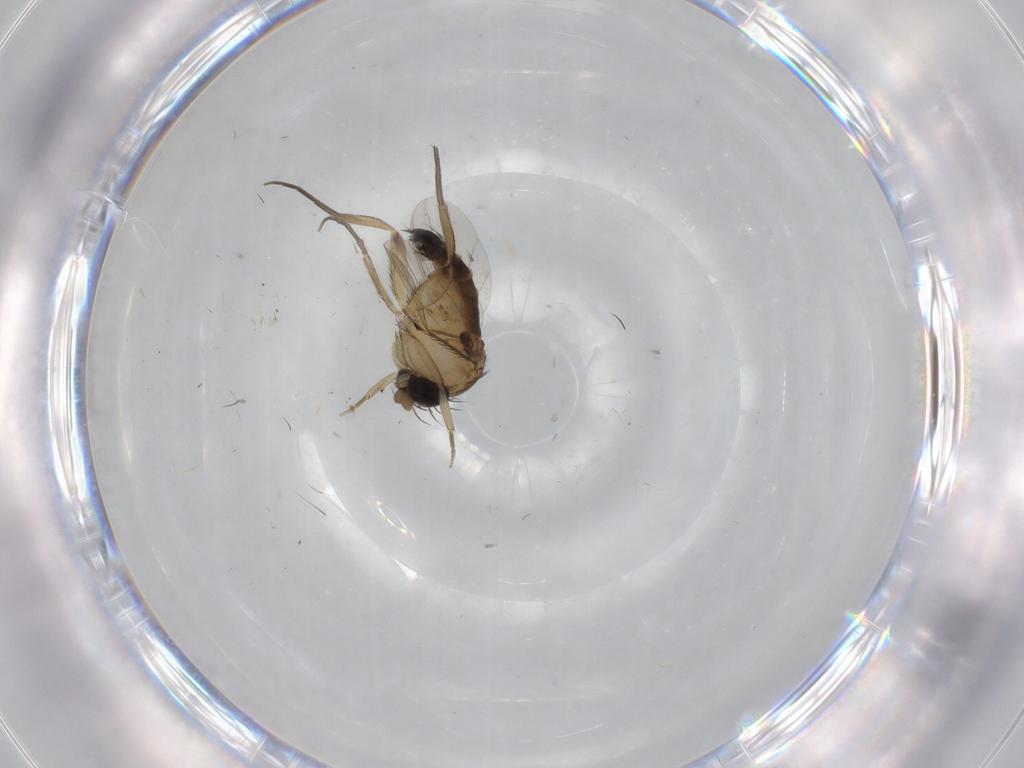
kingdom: Animalia
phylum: Arthropoda
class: Insecta
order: Diptera
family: Phoridae
